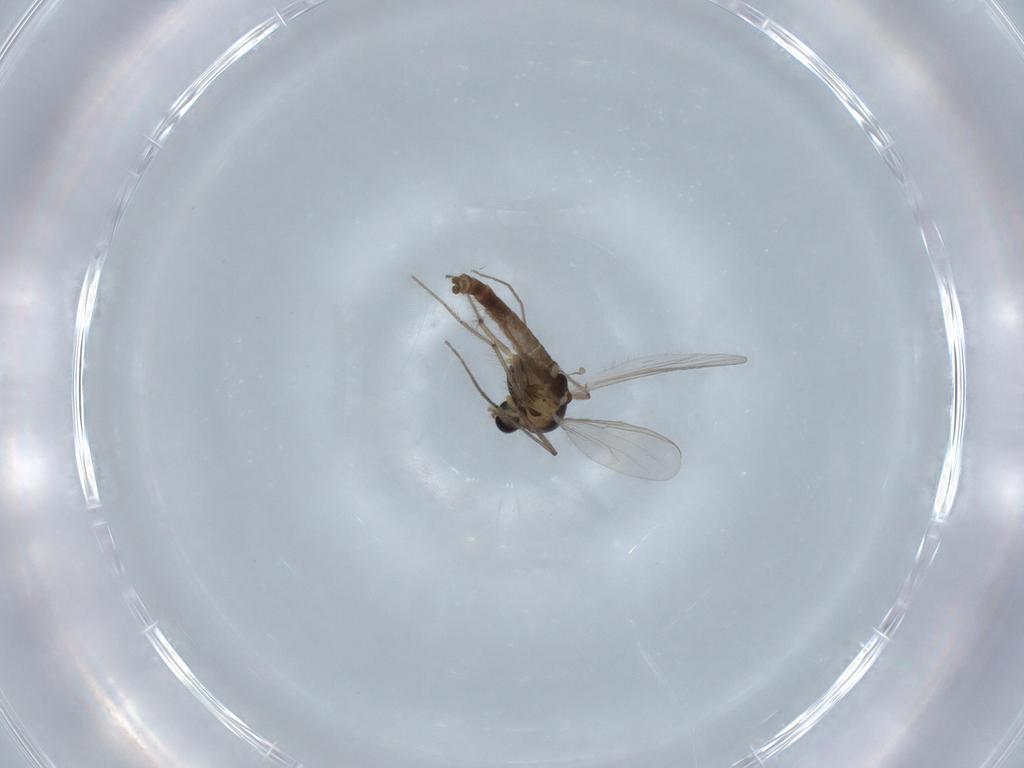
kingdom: Animalia
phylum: Arthropoda
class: Insecta
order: Diptera
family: Chironomidae
